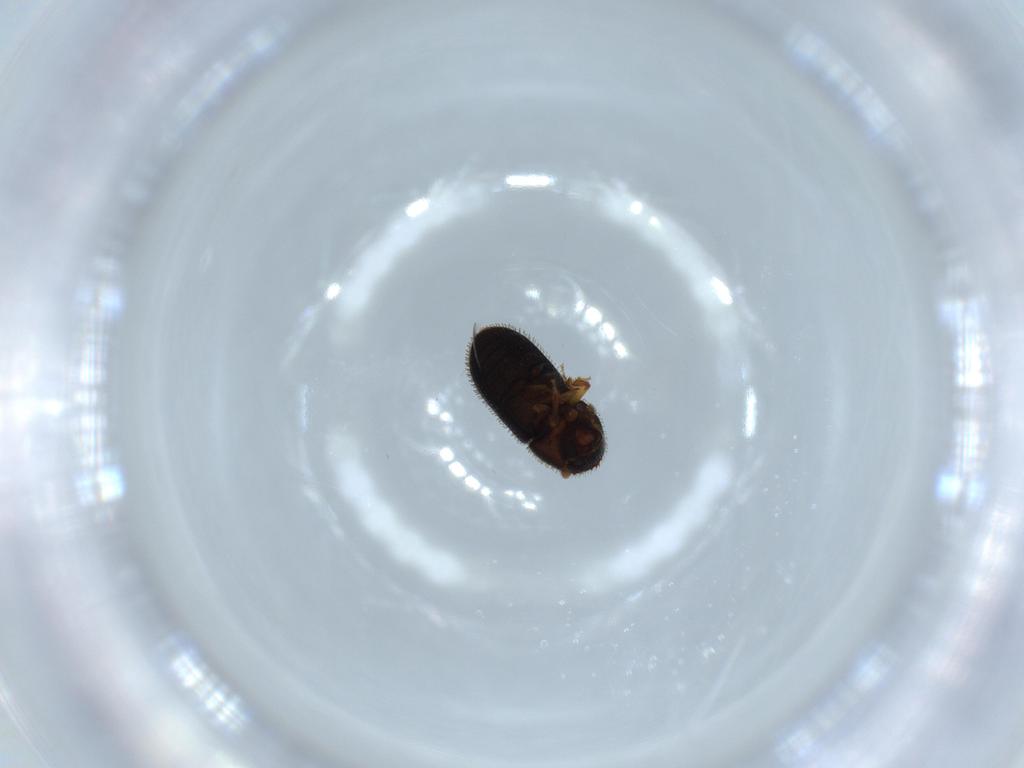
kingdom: Animalia
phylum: Arthropoda
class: Insecta
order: Coleoptera
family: Curculionidae
